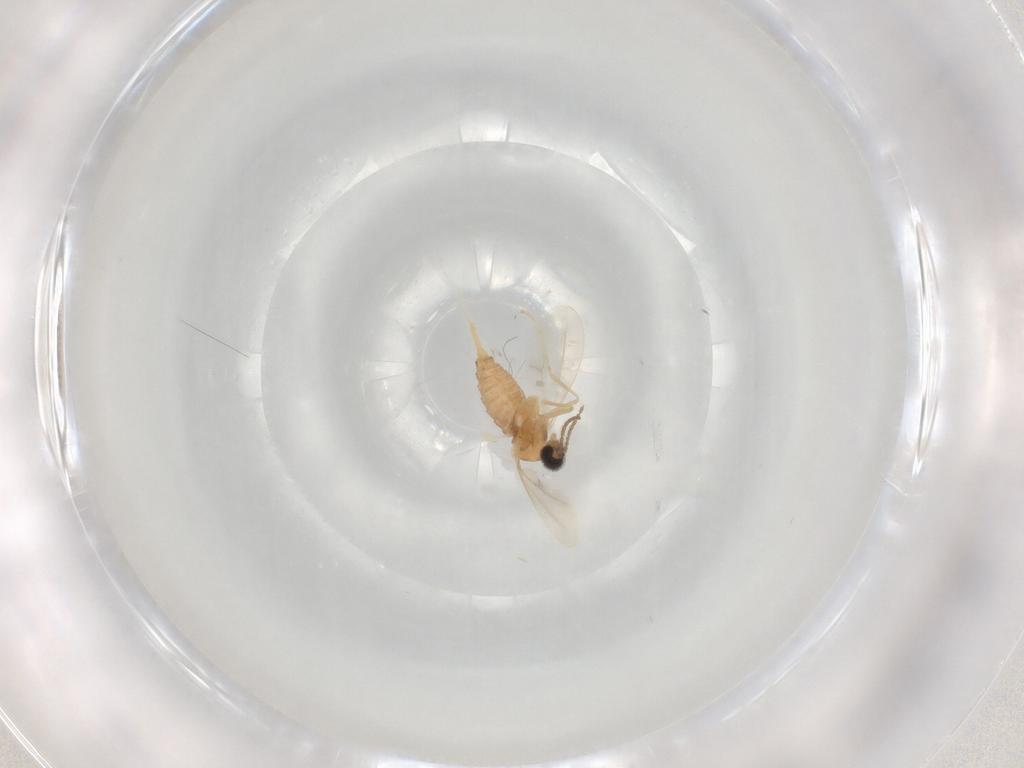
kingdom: Animalia
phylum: Arthropoda
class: Insecta
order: Diptera
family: Cecidomyiidae
